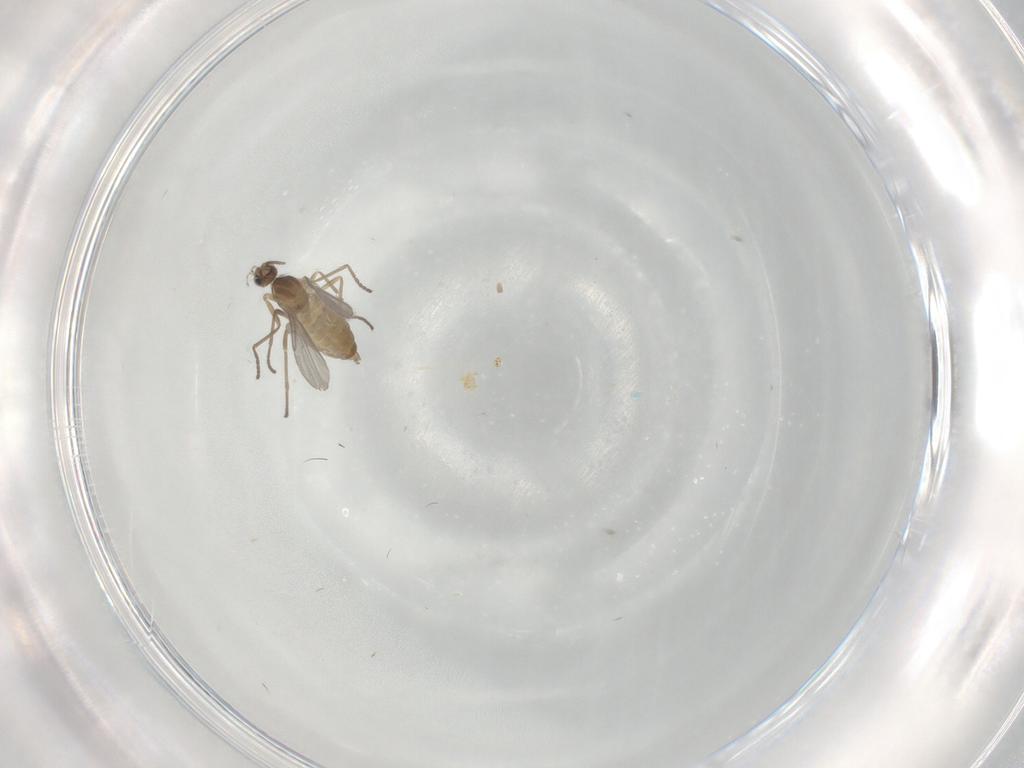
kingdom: Animalia
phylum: Arthropoda
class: Insecta
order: Diptera
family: Cecidomyiidae
